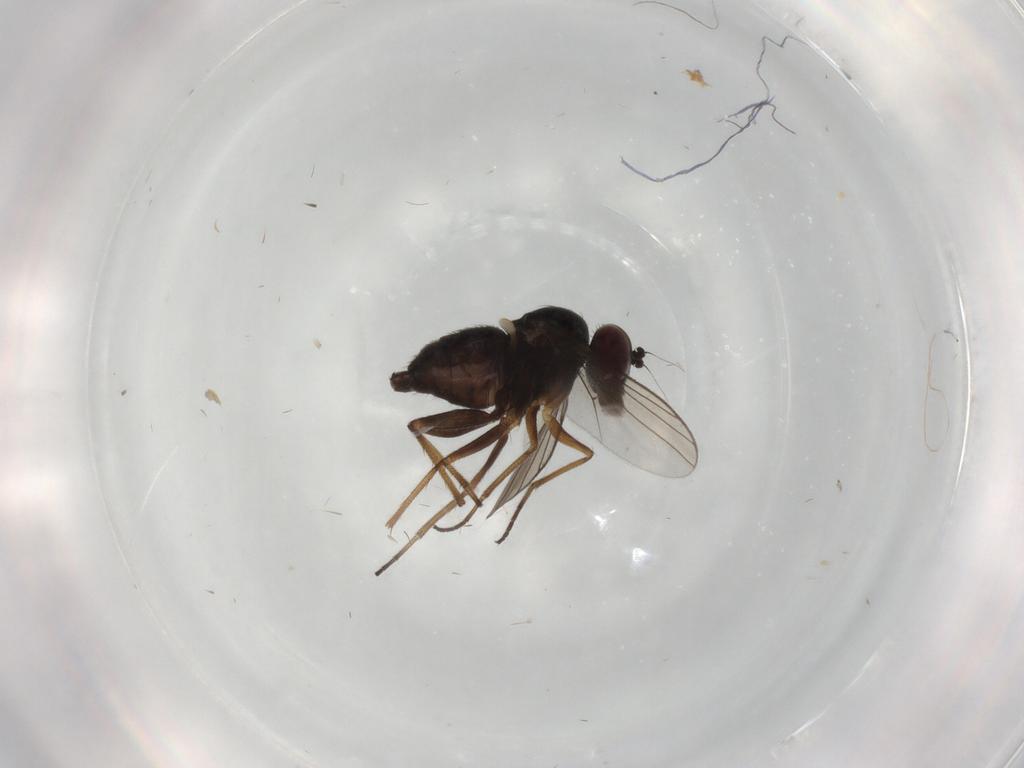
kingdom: Animalia
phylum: Arthropoda
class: Insecta
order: Diptera
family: Dolichopodidae
